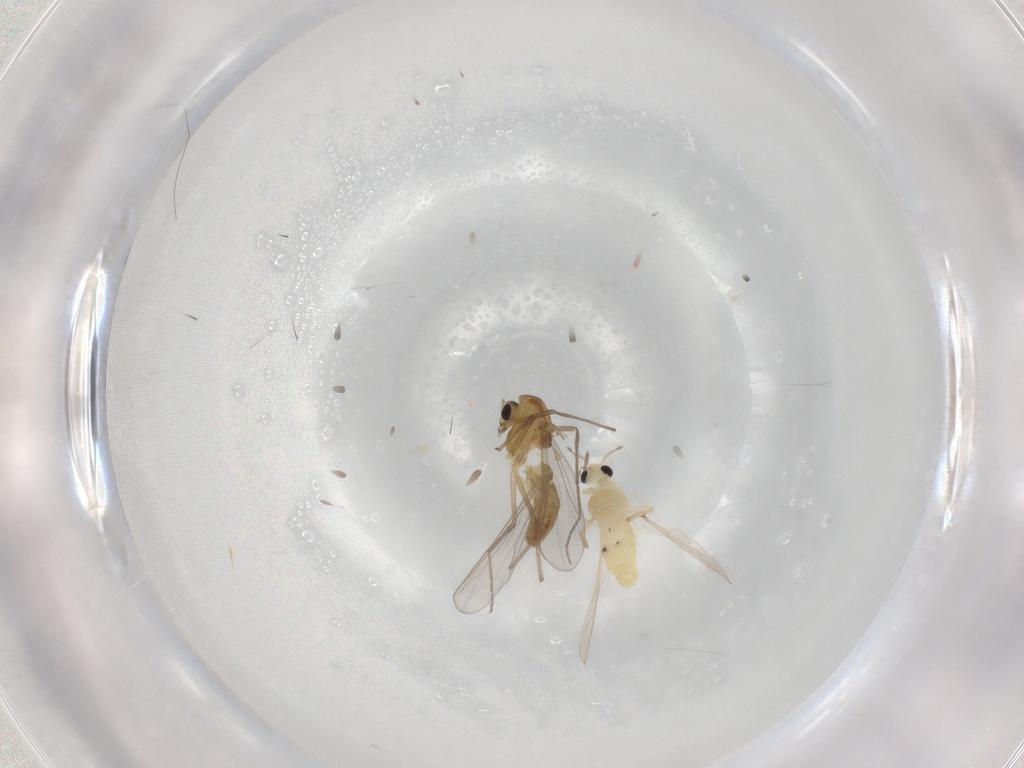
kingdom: Animalia
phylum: Arthropoda
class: Insecta
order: Diptera
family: Chironomidae
